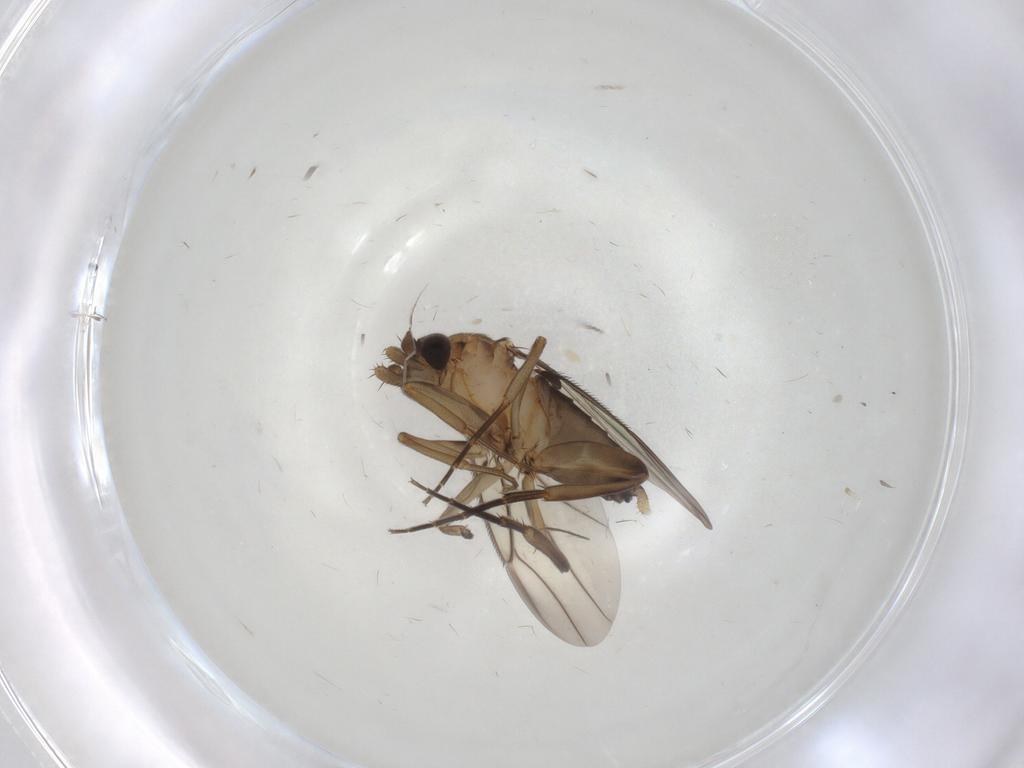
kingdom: Animalia
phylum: Arthropoda
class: Insecta
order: Diptera
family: Phoridae
